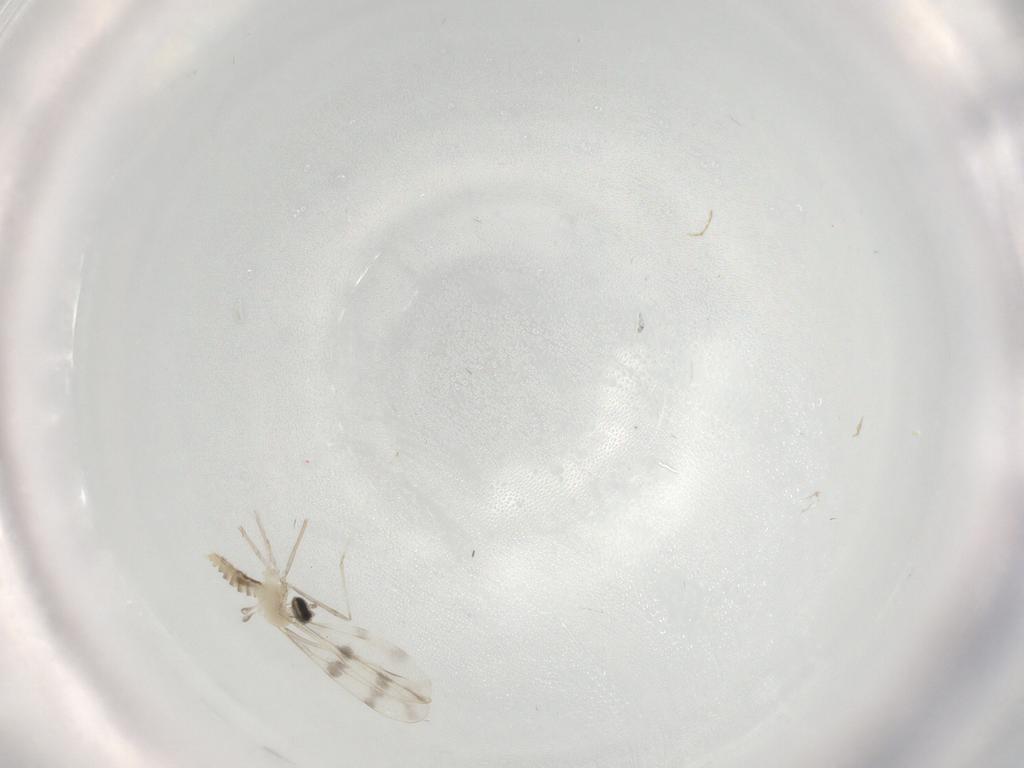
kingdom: Animalia
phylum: Arthropoda
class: Insecta
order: Diptera
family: Cecidomyiidae
